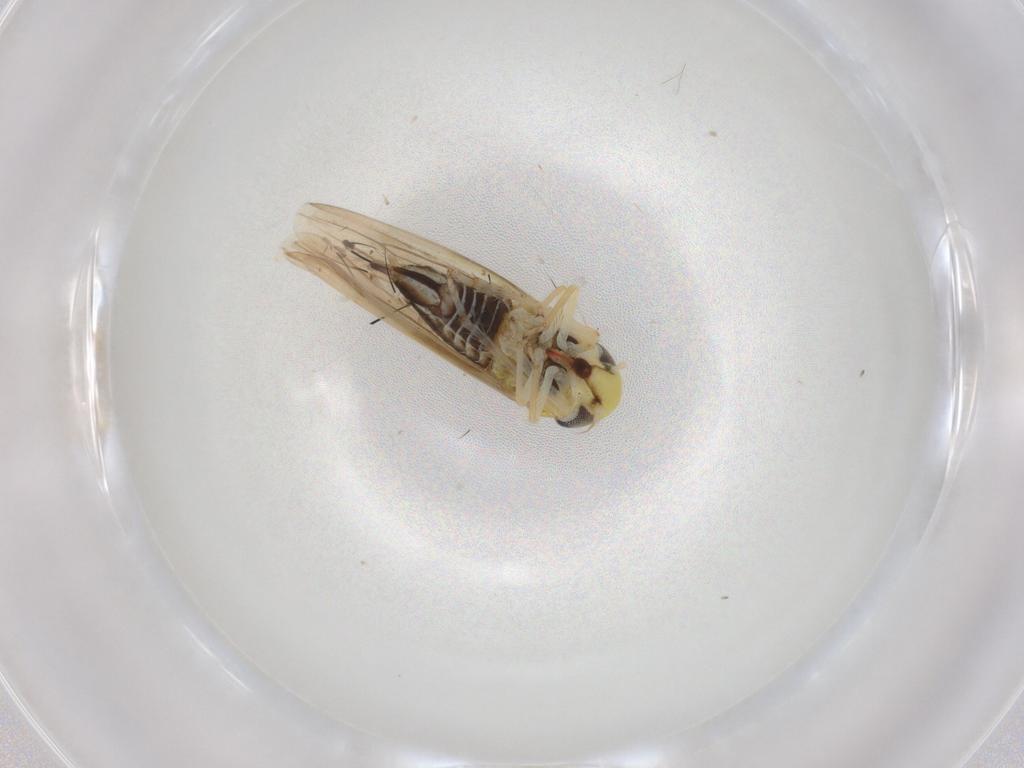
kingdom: Animalia
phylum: Arthropoda
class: Insecta
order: Hemiptera
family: Cicadellidae
